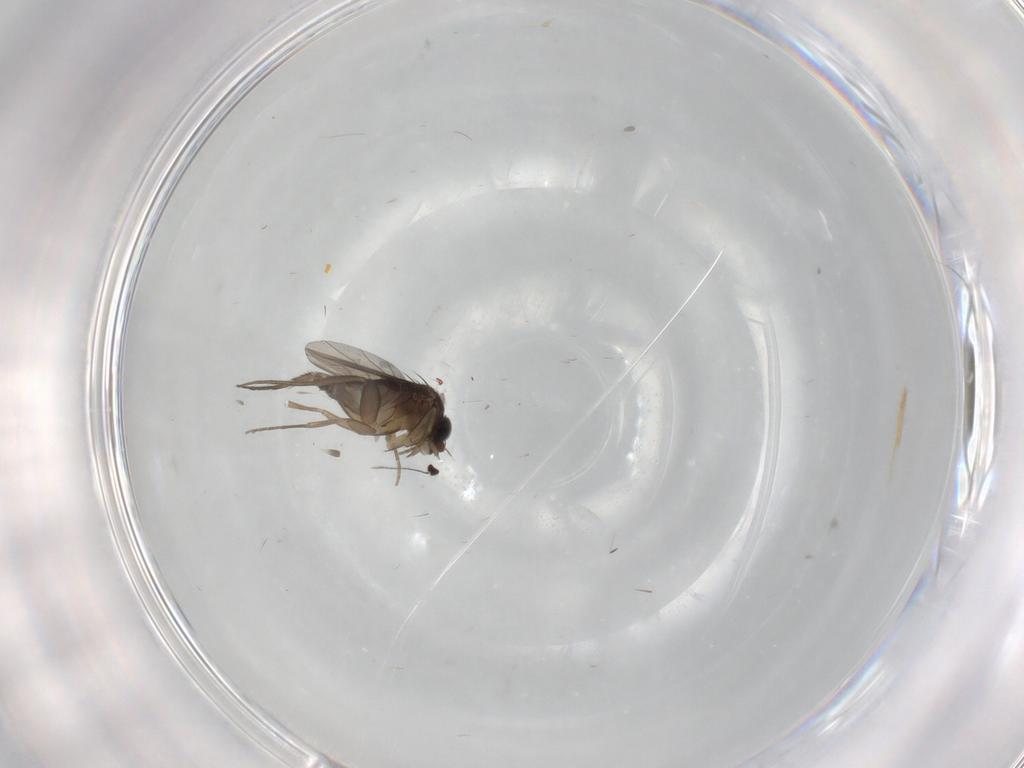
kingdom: Animalia
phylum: Arthropoda
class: Insecta
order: Diptera
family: Phoridae
